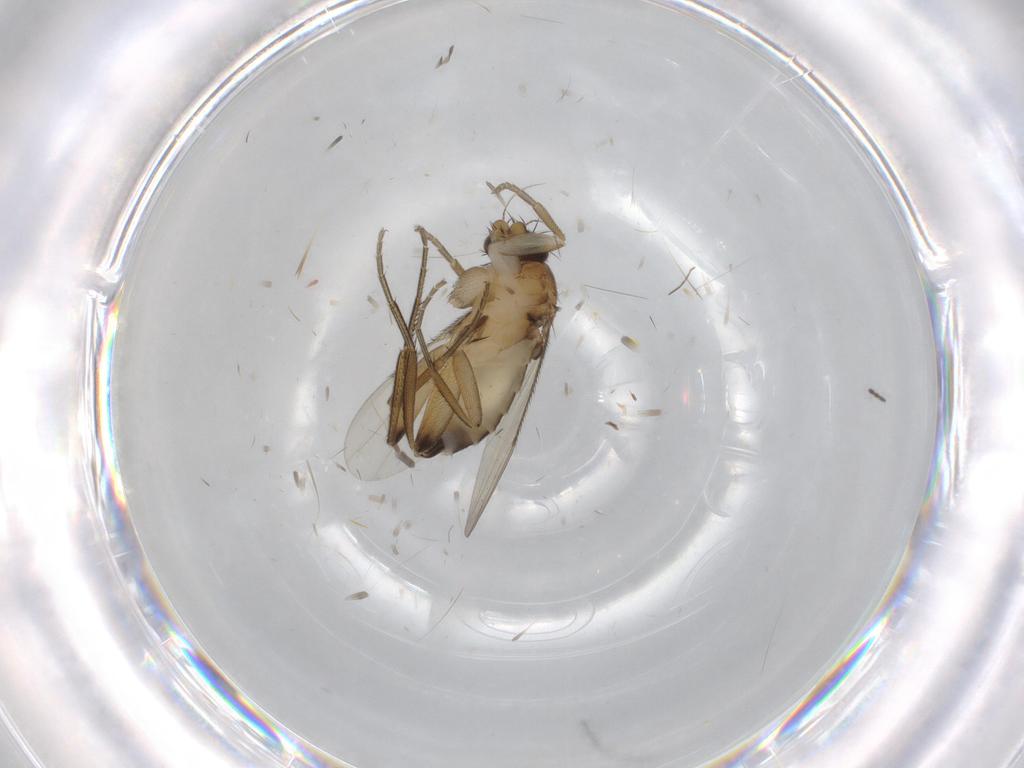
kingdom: Animalia
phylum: Arthropoda
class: Insecta
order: Diptera
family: Phoridae
